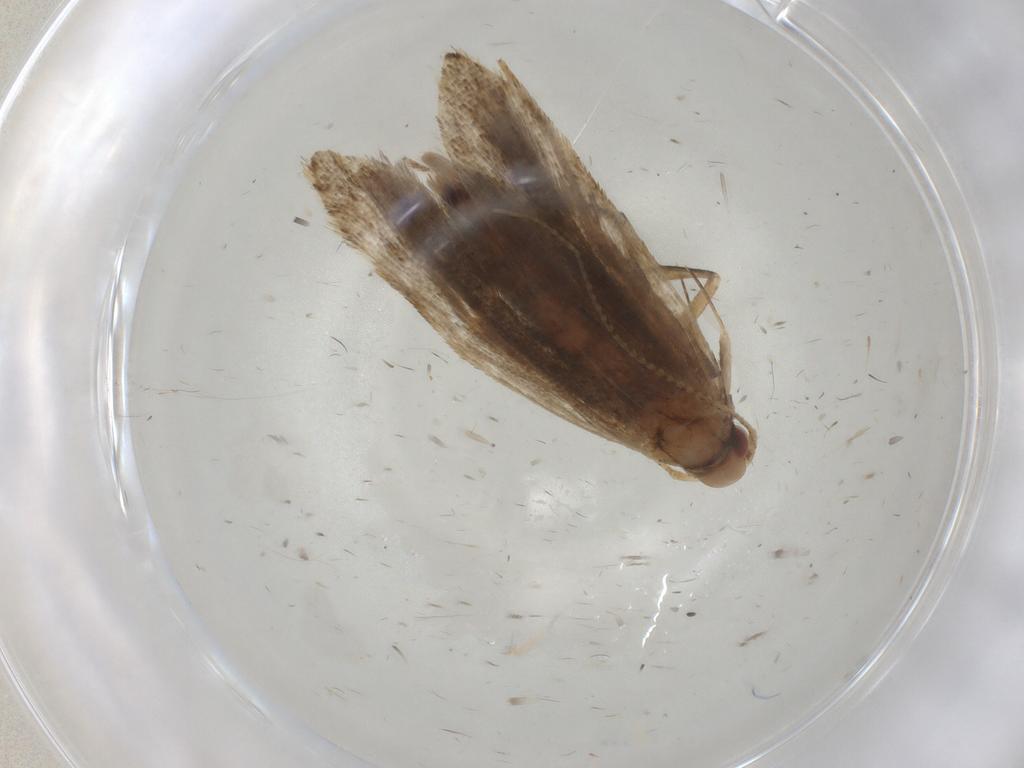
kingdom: Animalia
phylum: Arthropoda
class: Insecta
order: Lepidoptera
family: Gelechiidae
